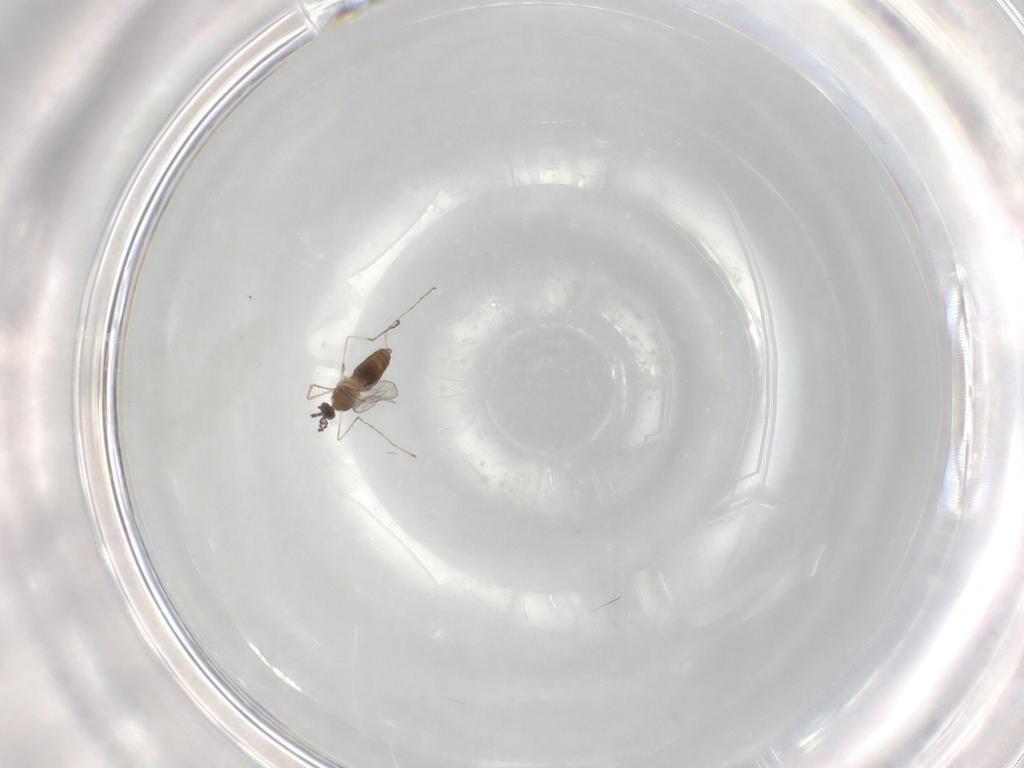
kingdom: Animalia
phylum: Arthropoda
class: Insecta
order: Diptera
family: Cecidomyiidae
